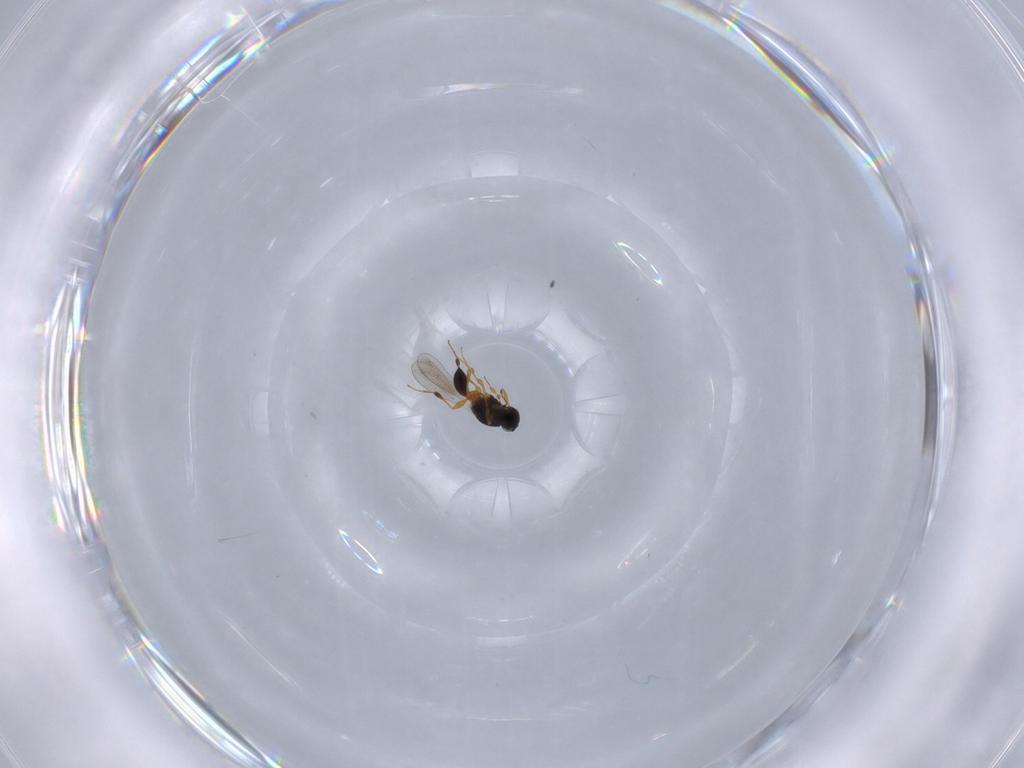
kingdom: Animalia
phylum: Arthropoda
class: Insecta
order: Hymenoptera
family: Platygastridae
